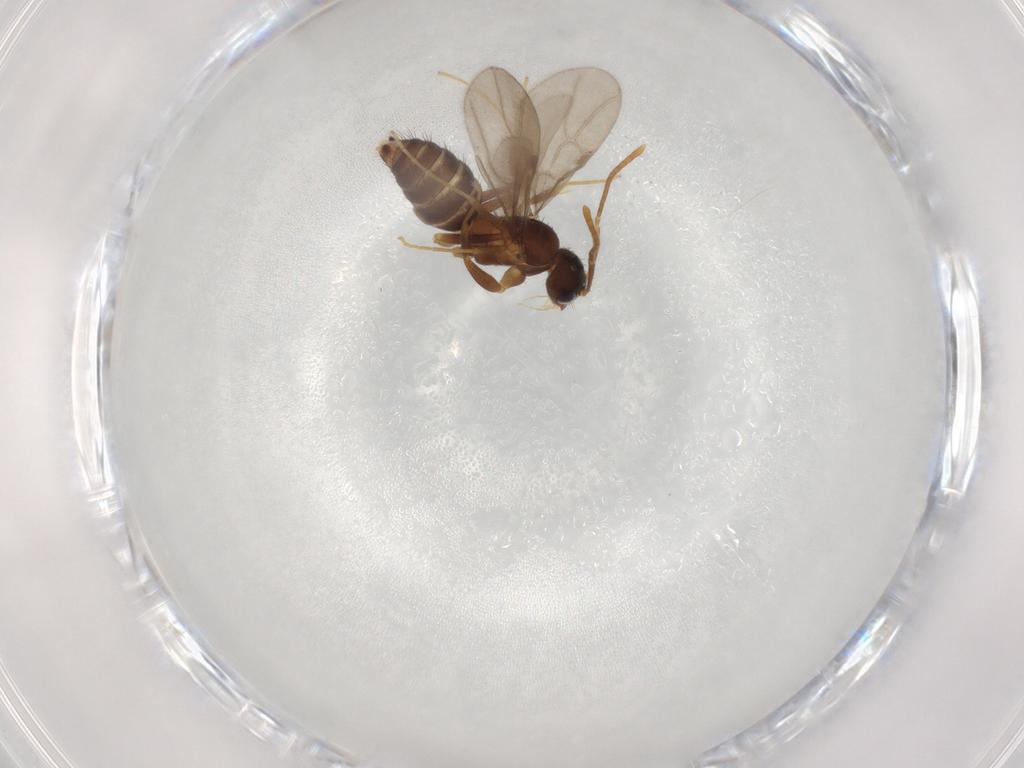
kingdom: Animalia
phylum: Arthropoda
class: Insecta
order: Hymenoptera
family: Formicidae
